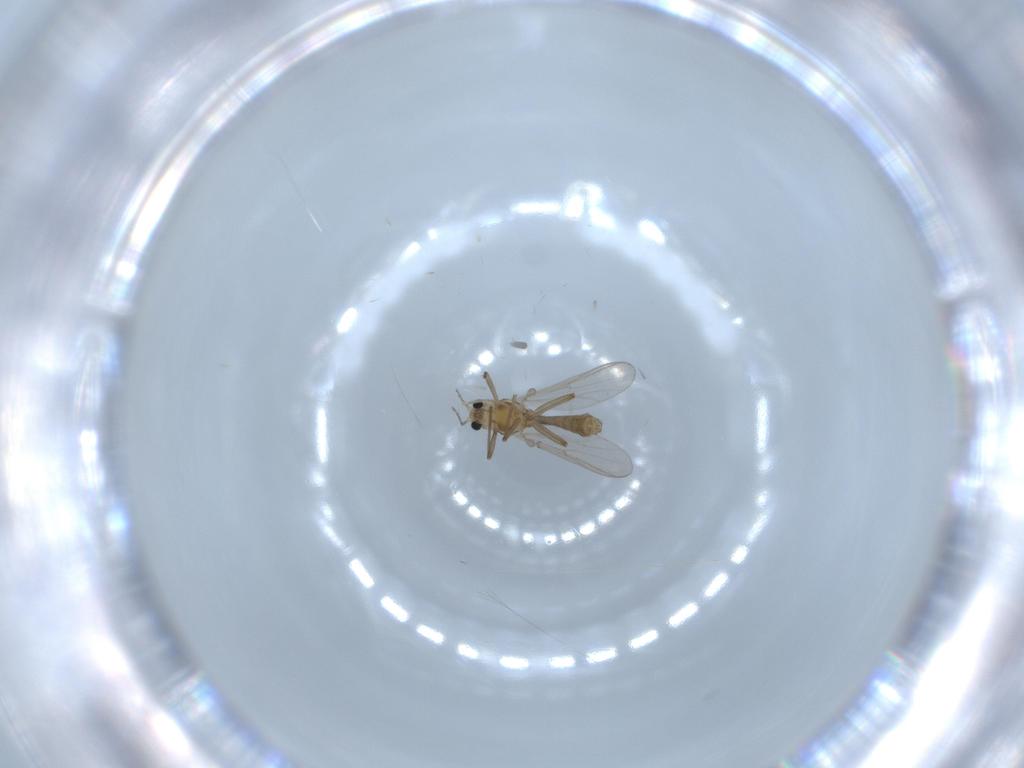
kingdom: Animalia
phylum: Arthropoda
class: Insecta
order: Diptera
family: Chironomidae
